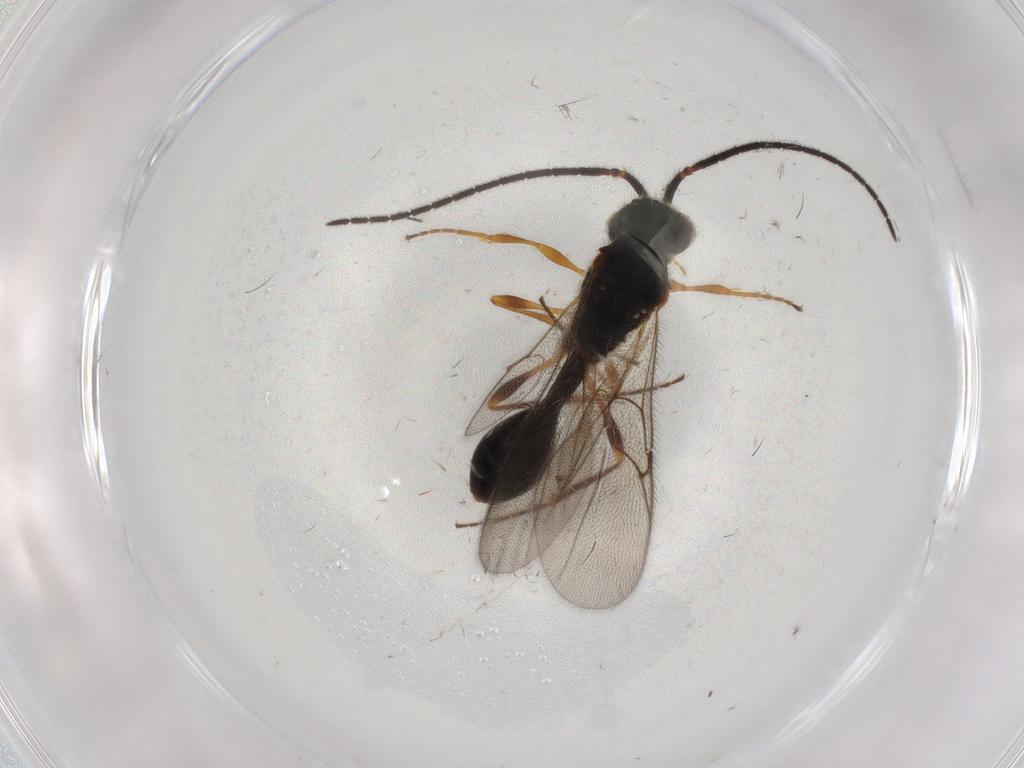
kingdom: Animalia
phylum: Arthropoda
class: Insecta
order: Hymenoptera
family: Diapriidae
